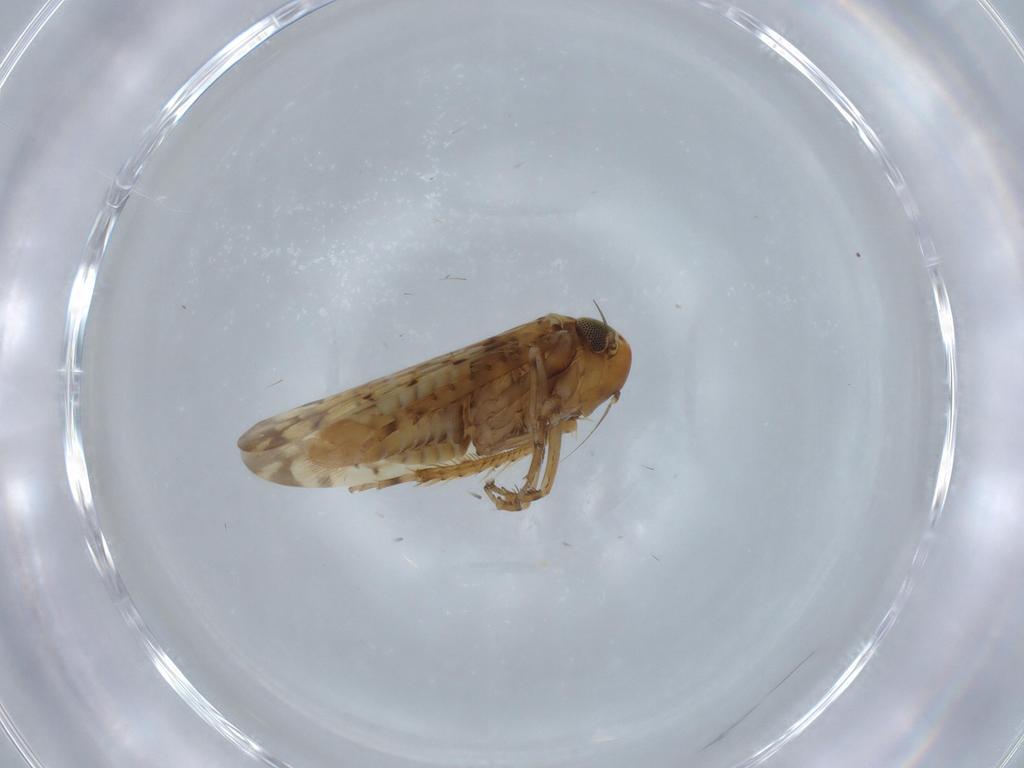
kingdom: Animalia
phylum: Arthropoda
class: Insecta
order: Hemiptera
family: Cicadellidae
